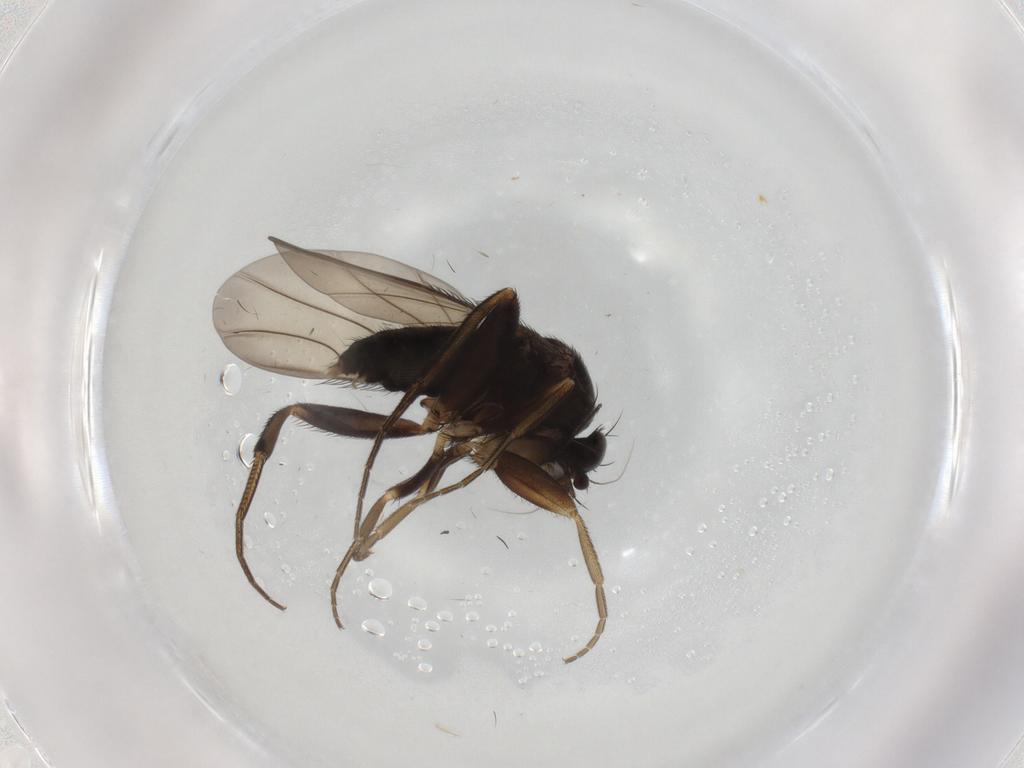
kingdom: Animalia
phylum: Arthropoda
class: Insecta
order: Diptera
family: Phoridae
